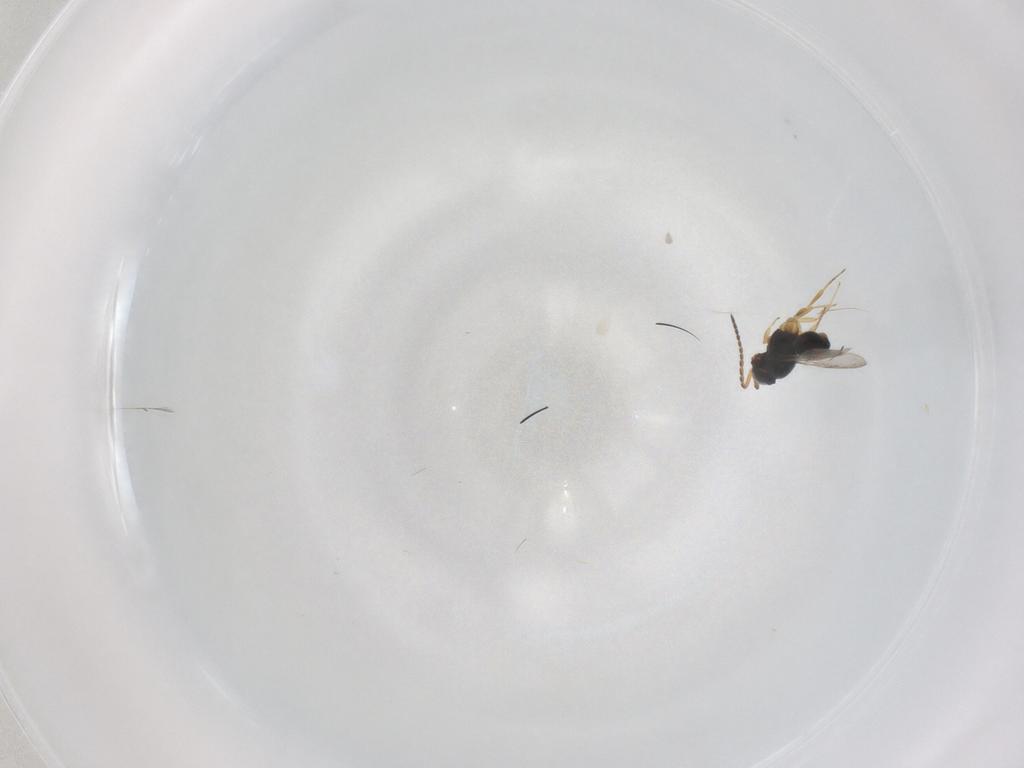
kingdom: Animalia
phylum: Arthropoda
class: Insecta
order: Hymenoptera
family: Scelionidae
